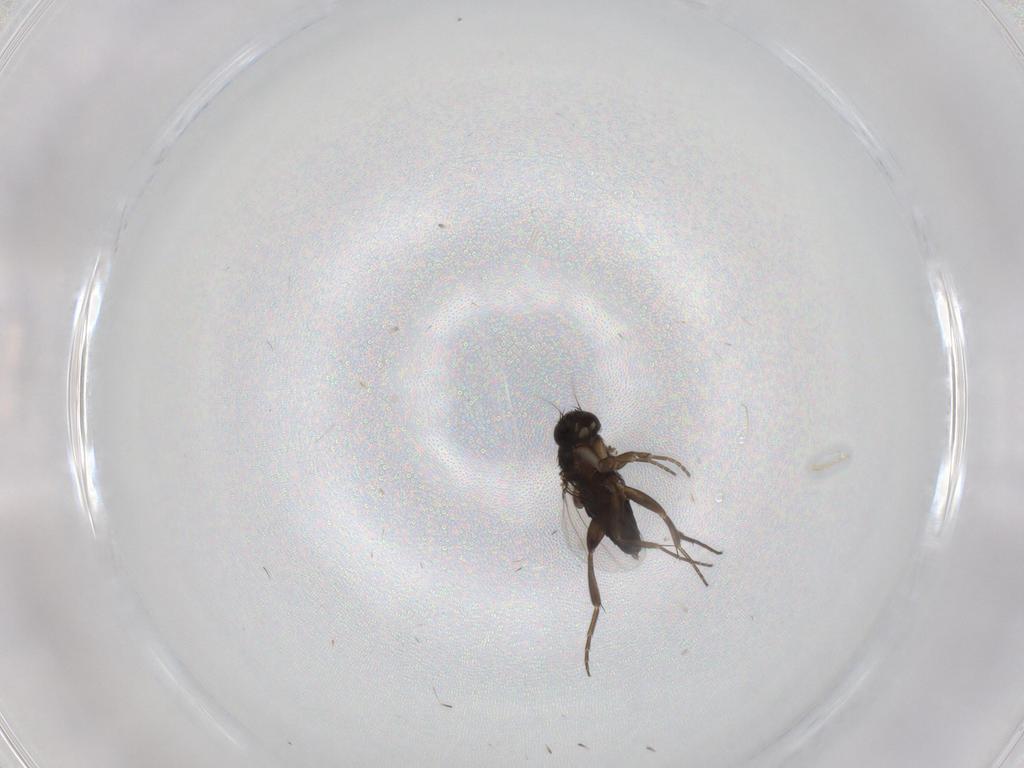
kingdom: Animalia
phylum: Arthropoda
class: Insecta
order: Diptera
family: Phoridae
